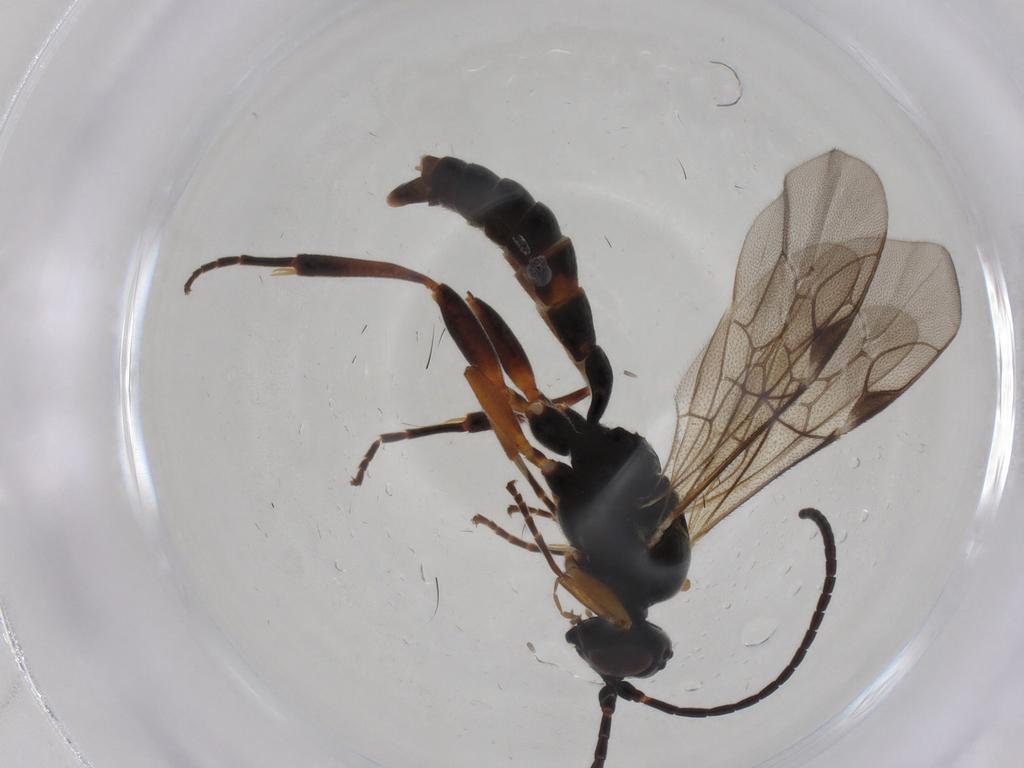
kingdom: Animalia
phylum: Arthropoda
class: Insecta
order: Hymenoptera
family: Ichneumonidae
